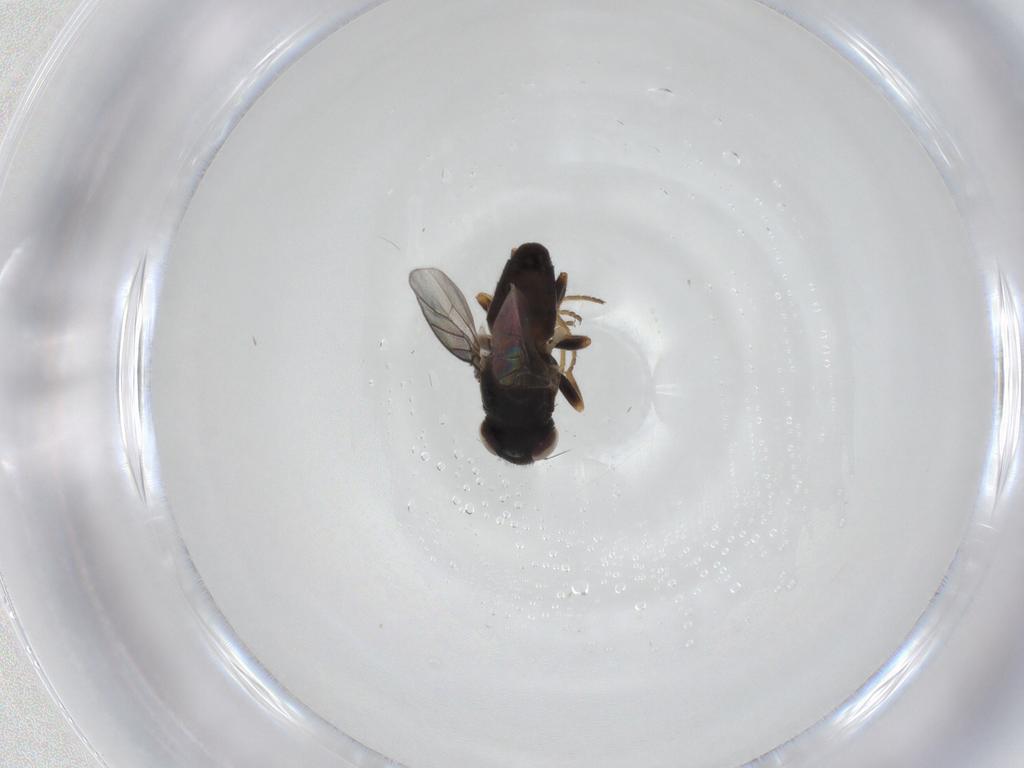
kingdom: Animalia
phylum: Arthropoda
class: Insecta
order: Diptera
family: Chloropidae
